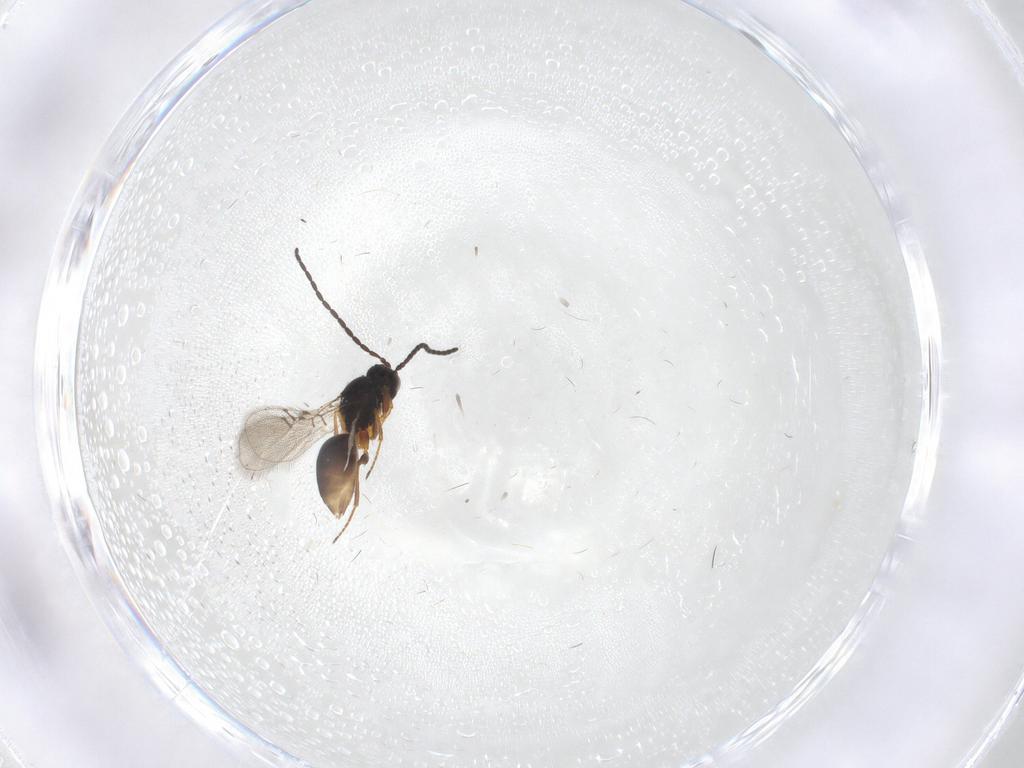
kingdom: Animalia
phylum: Arthropoda
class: Insecta
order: Hymenoptera
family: Figitidae
